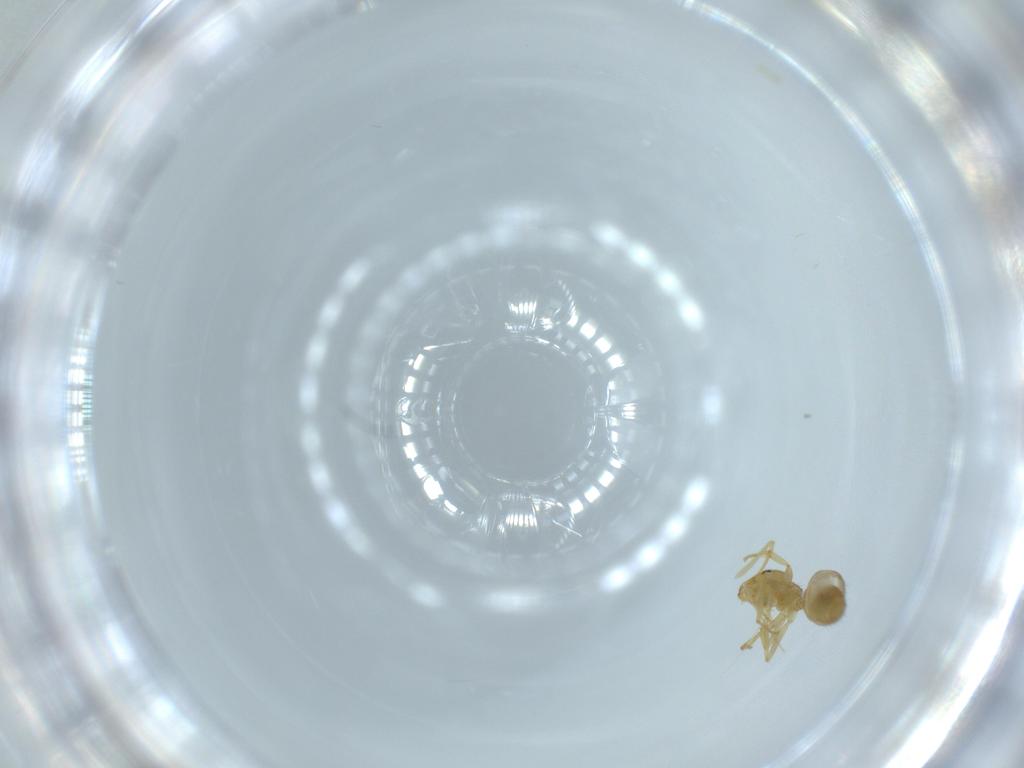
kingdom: Animalia
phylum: Arthropoda
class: Insecta
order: Hymenoptera
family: Formicidae
